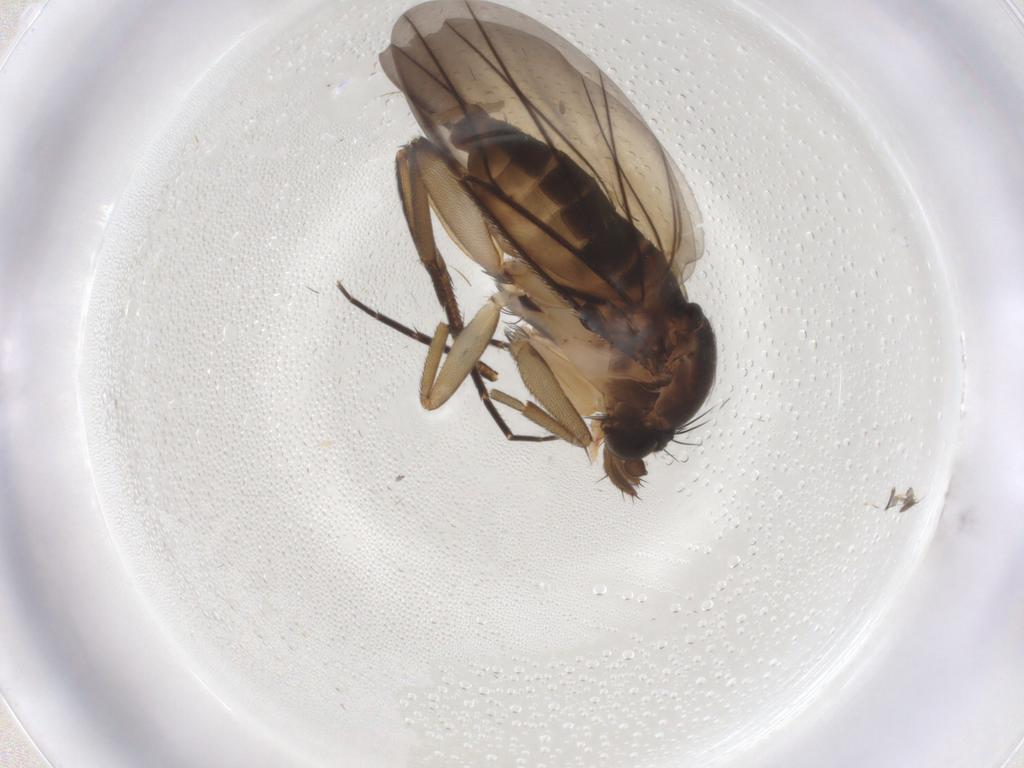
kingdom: Animalia
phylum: Arthropoda
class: Insecta
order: Diptera
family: Phoridae
